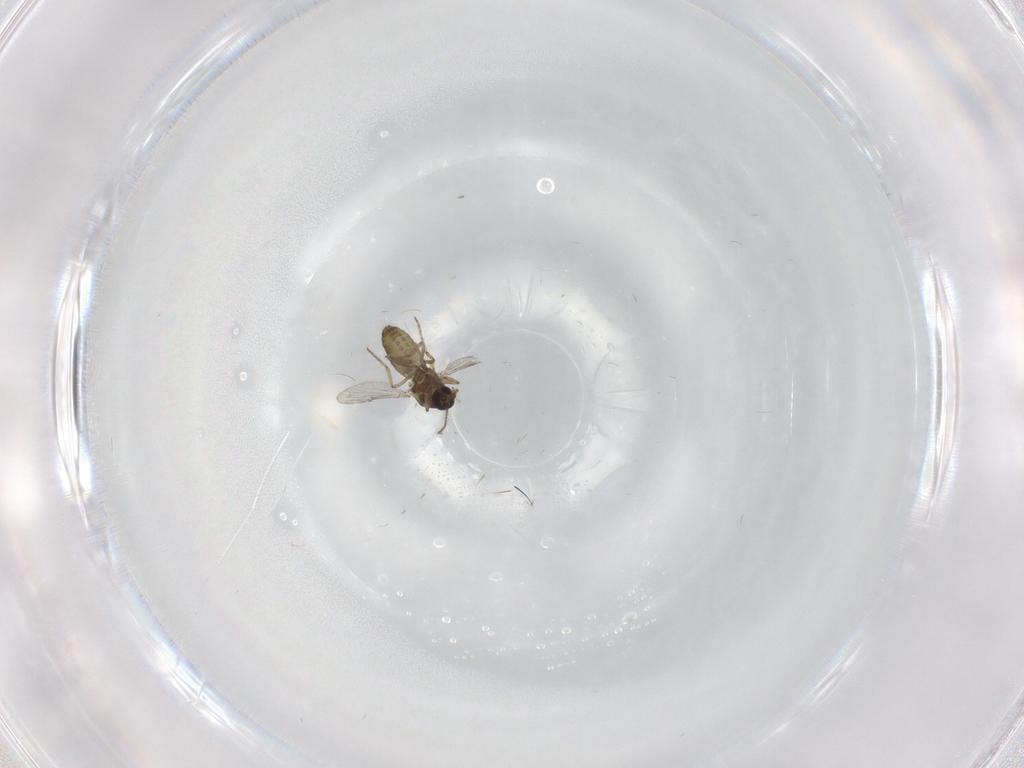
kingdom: Animalia
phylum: Arthropoda
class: Insecta
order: Diptera
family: Ceratopogonidae
